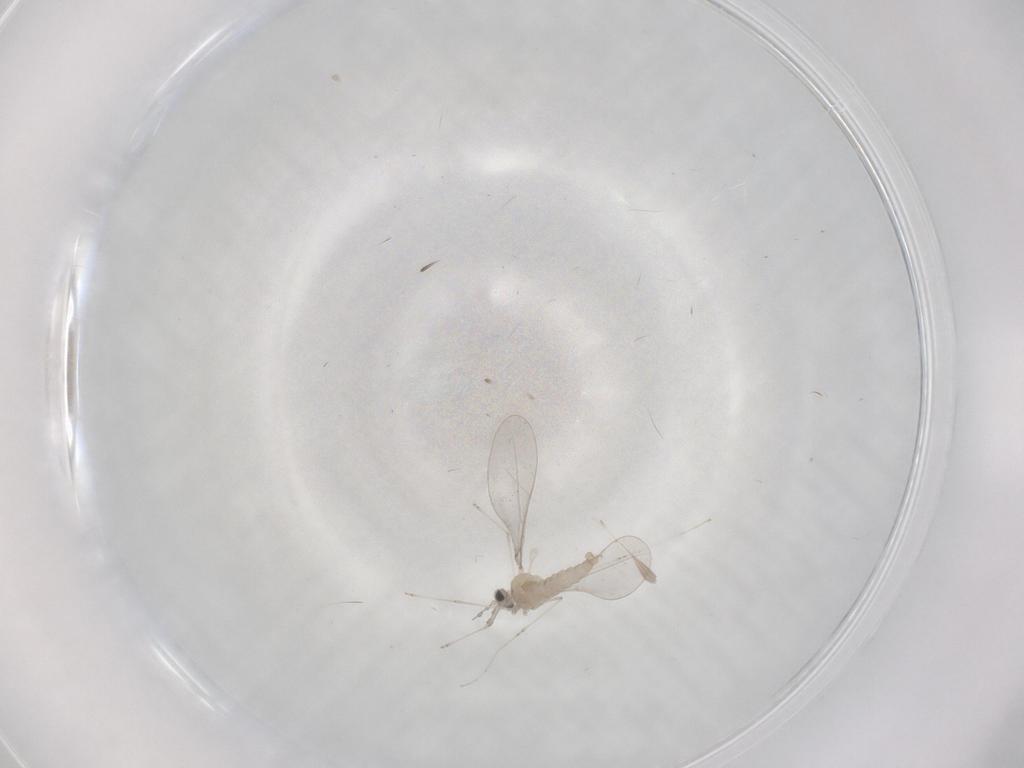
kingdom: Animalia
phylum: Arthropoda
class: Insecta
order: Diptera
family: Cecidomyiidae
